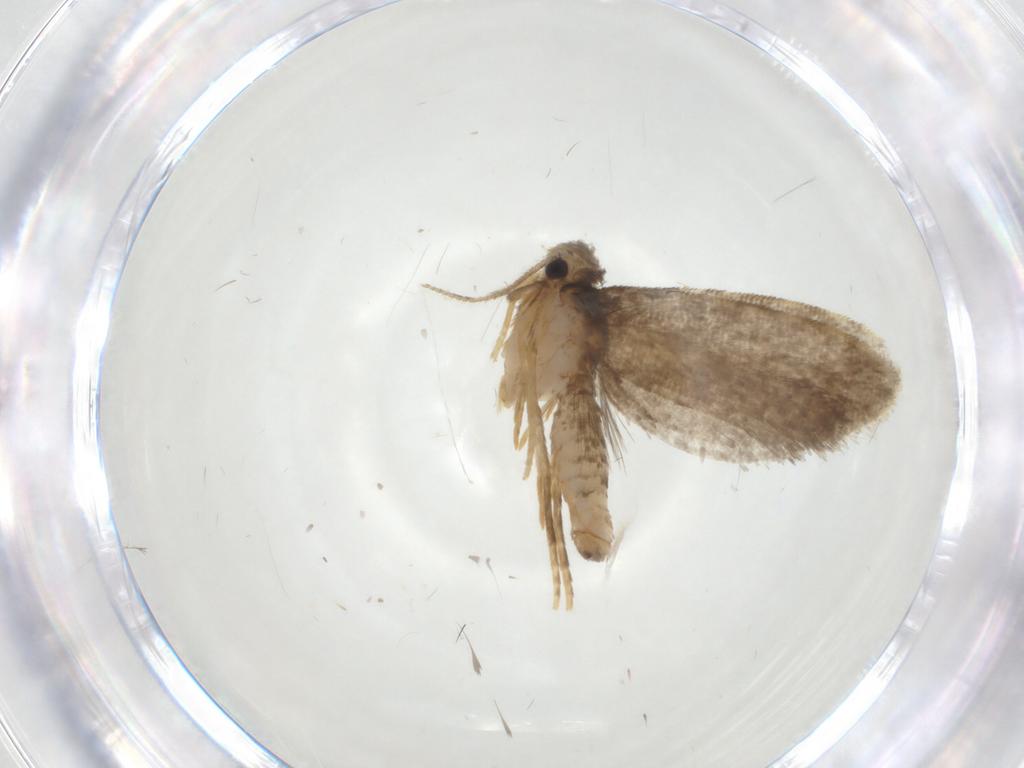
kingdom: Animalia
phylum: Arthropoda
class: Insecta
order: Lepidoptera
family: Psychidae
